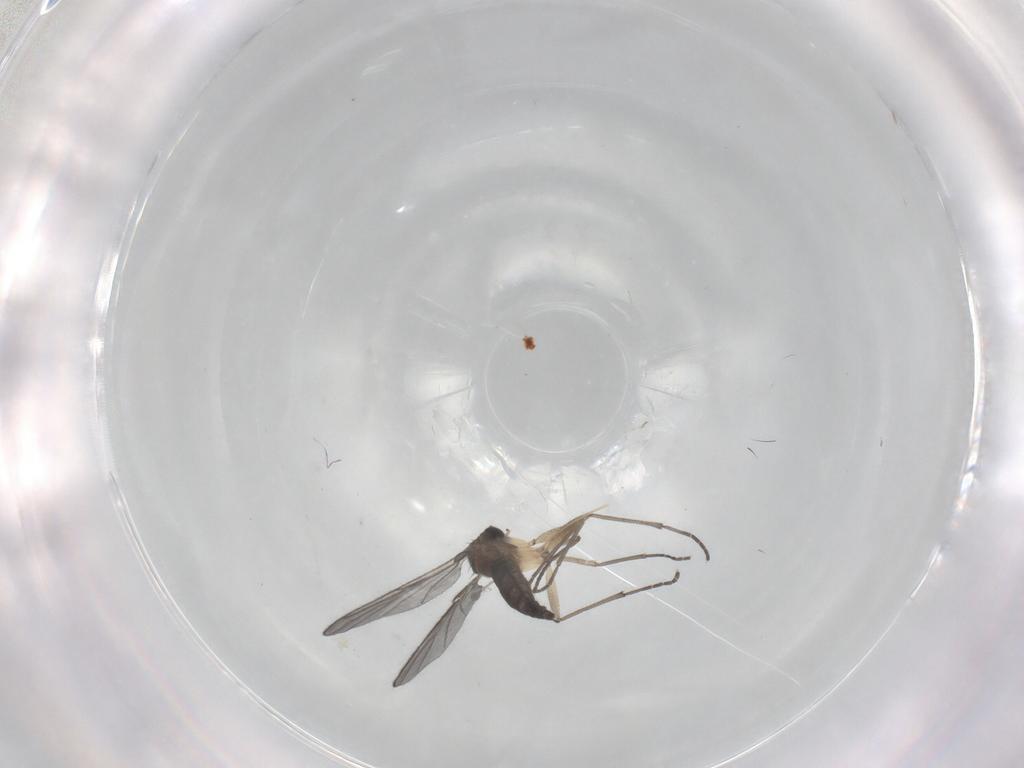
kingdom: Animalia
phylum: Arthropoda
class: Insecta
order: Diptera
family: Sciaridae
